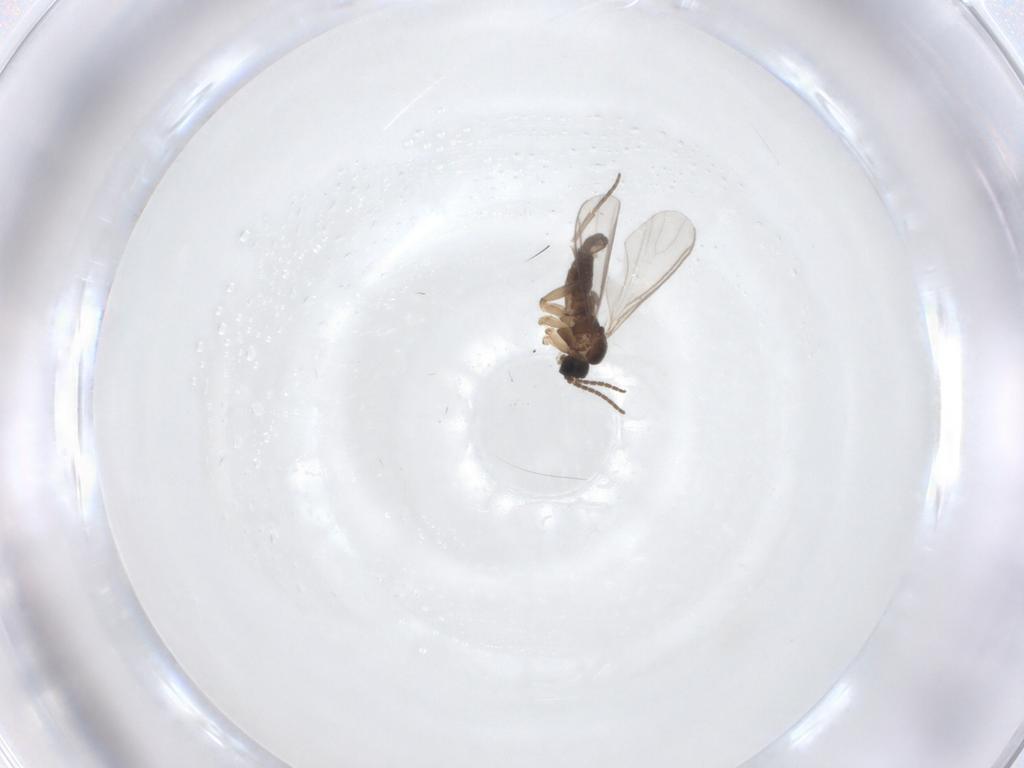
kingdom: Animalia
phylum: Arthropoda
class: Insecta
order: Diptera
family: Sciaridae
